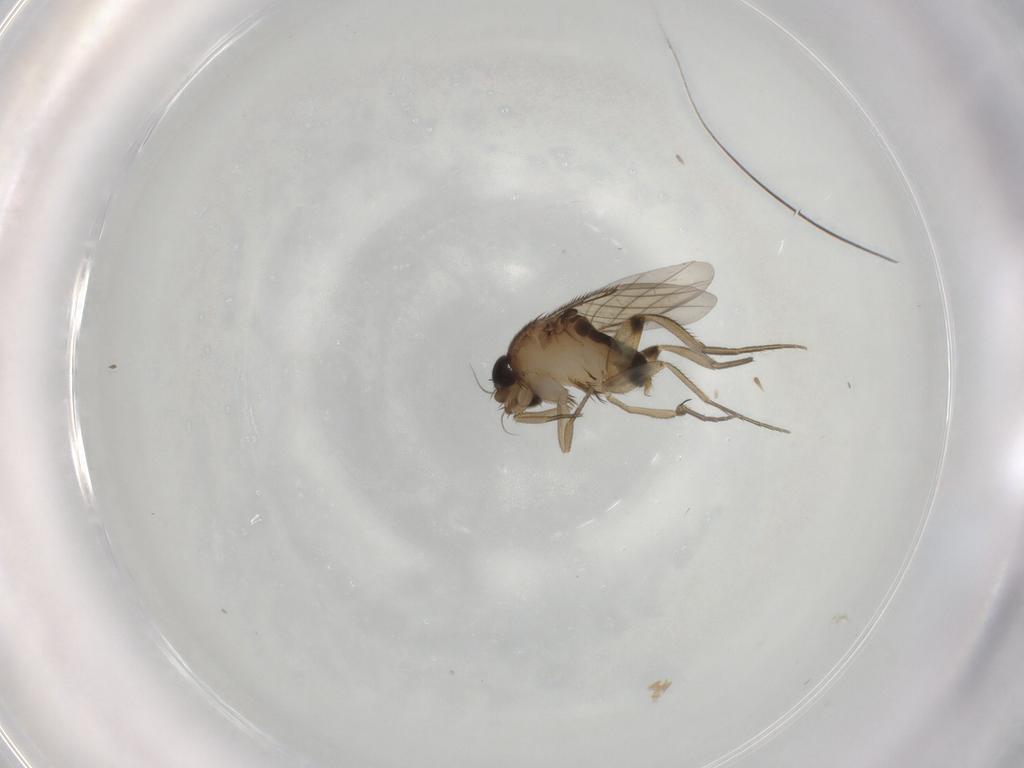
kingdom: Animalia
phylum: Arthropoda
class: Insecta
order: Diptera
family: Phoridae
